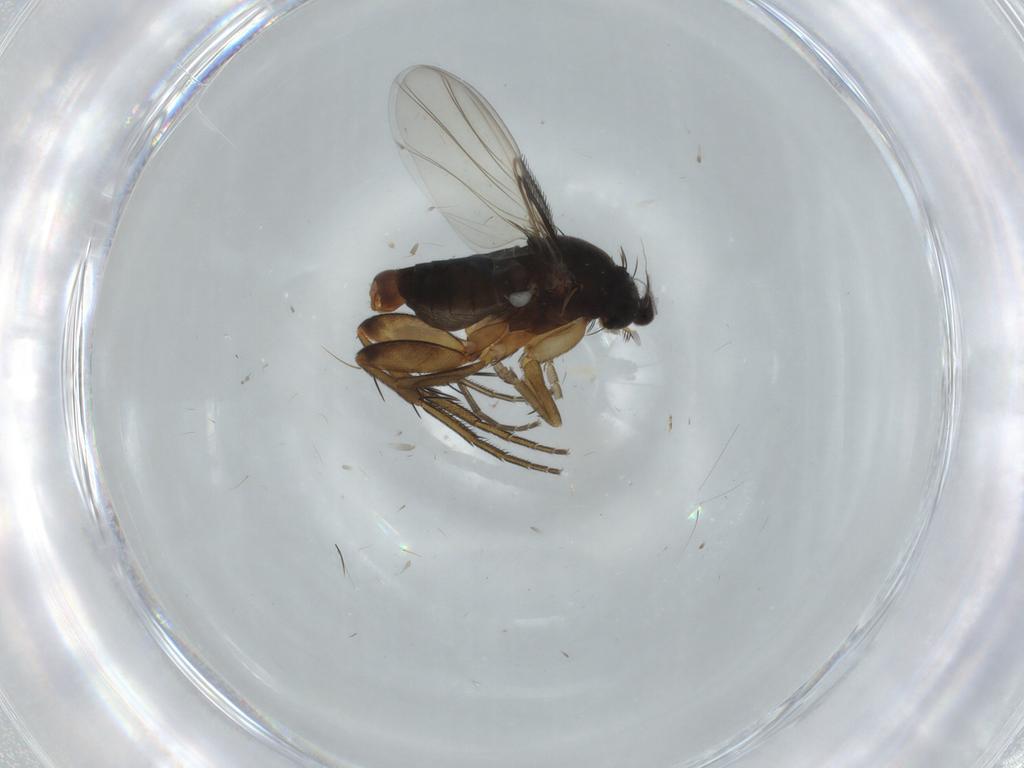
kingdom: Animalia
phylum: Arthropoda
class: Insecta
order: Diptera
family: Phoridae
